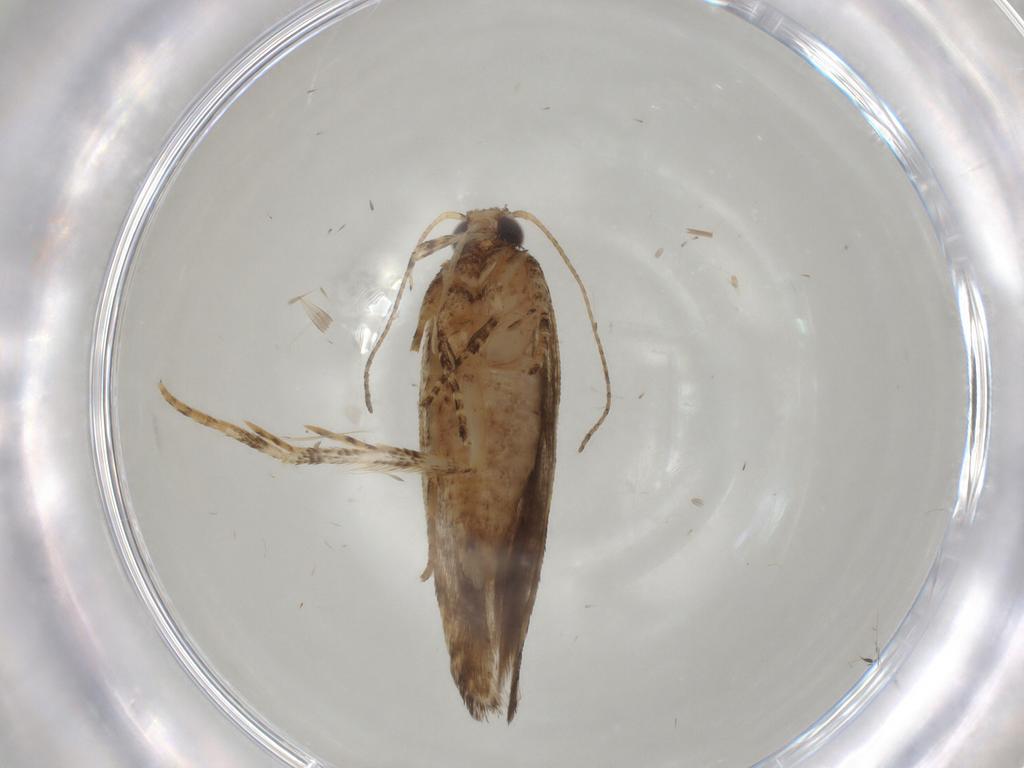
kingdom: Animalia
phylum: Arthropoda
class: Insecta
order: Lepidoptera
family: Gelechiidae
